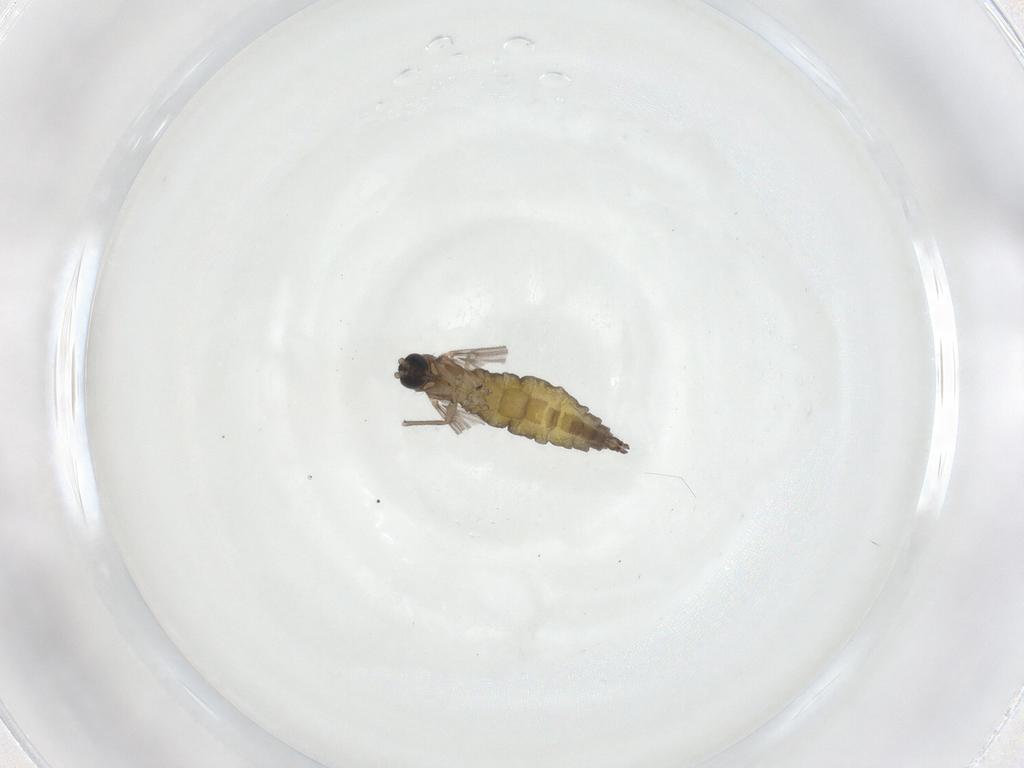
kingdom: Animalia
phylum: Arthropoda
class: Insecta
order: Diptera
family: Sciaridae
